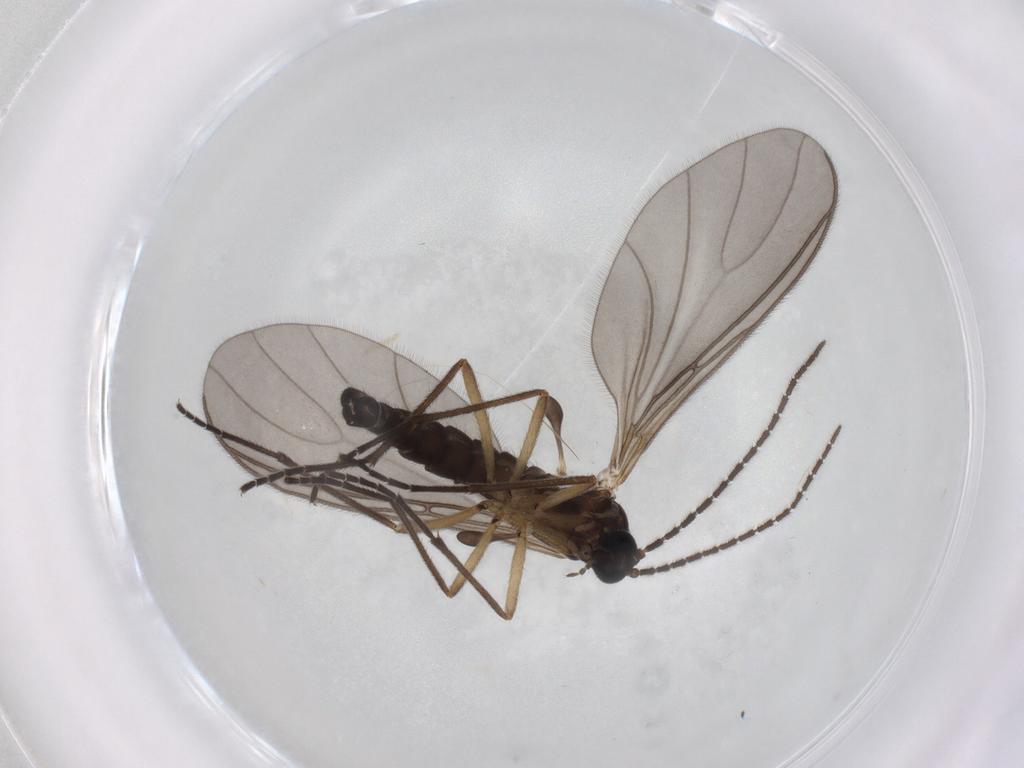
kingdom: Animalia
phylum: Arthropoda
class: Insecta
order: Diptera
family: Sciaridae
